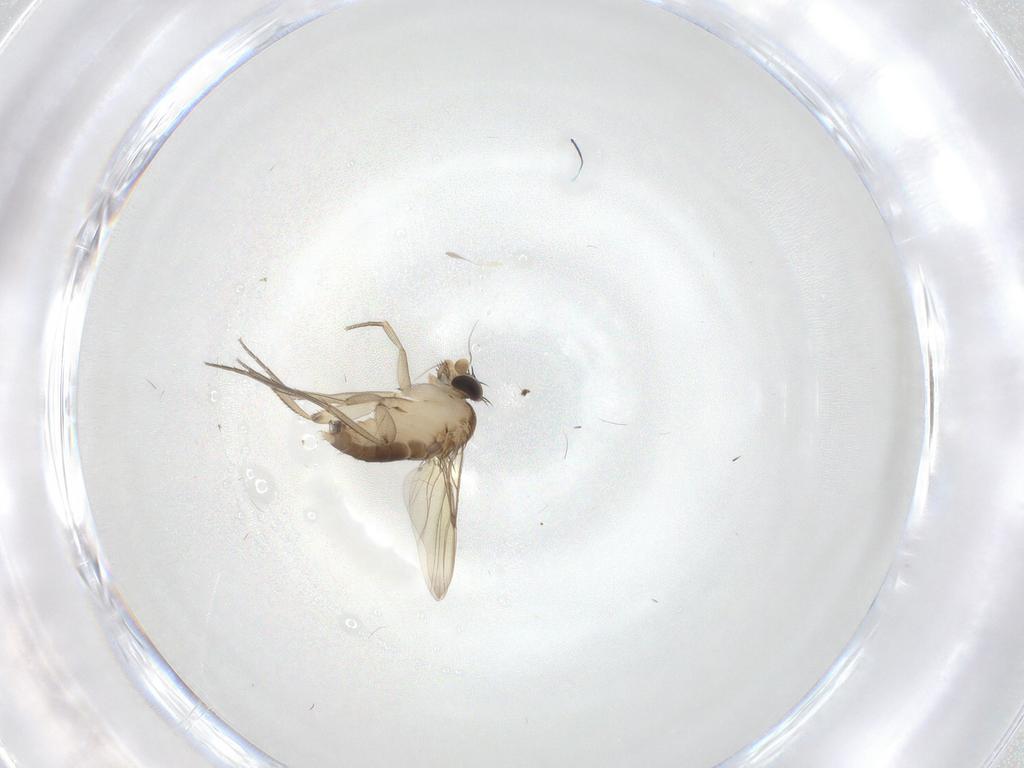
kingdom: Animalia
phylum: Arthropoda
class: Insecta
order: Diptera
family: Phoridae
